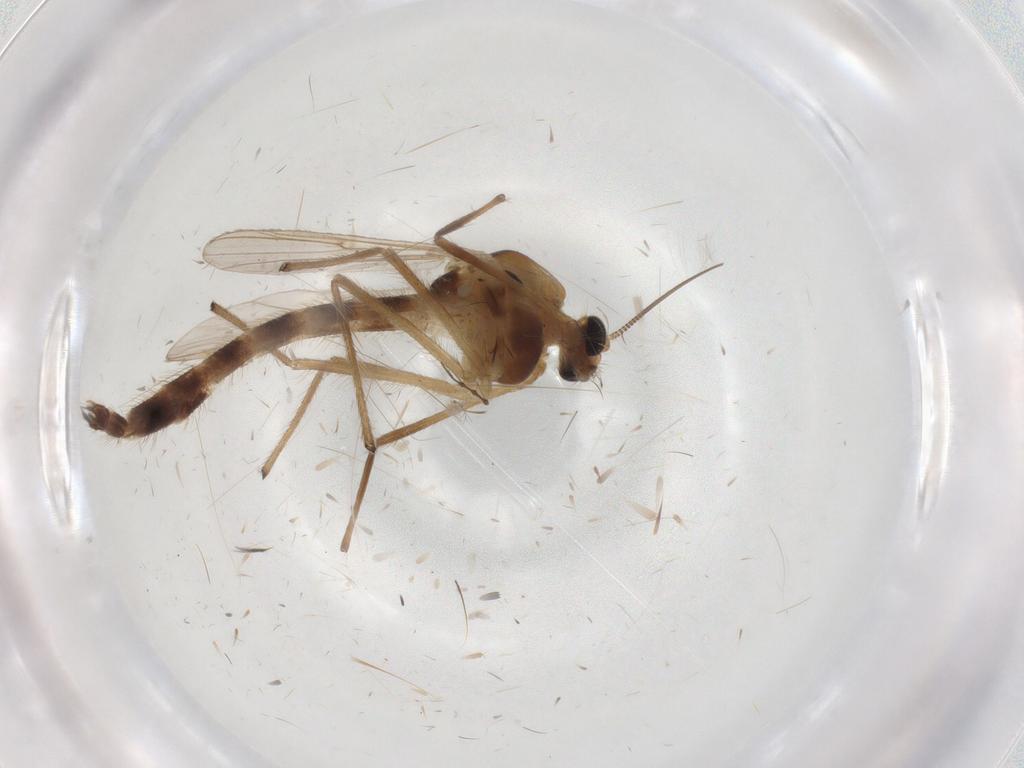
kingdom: Animalia
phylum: Arthropoda
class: Insecta
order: Diptera
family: Chironomidae
